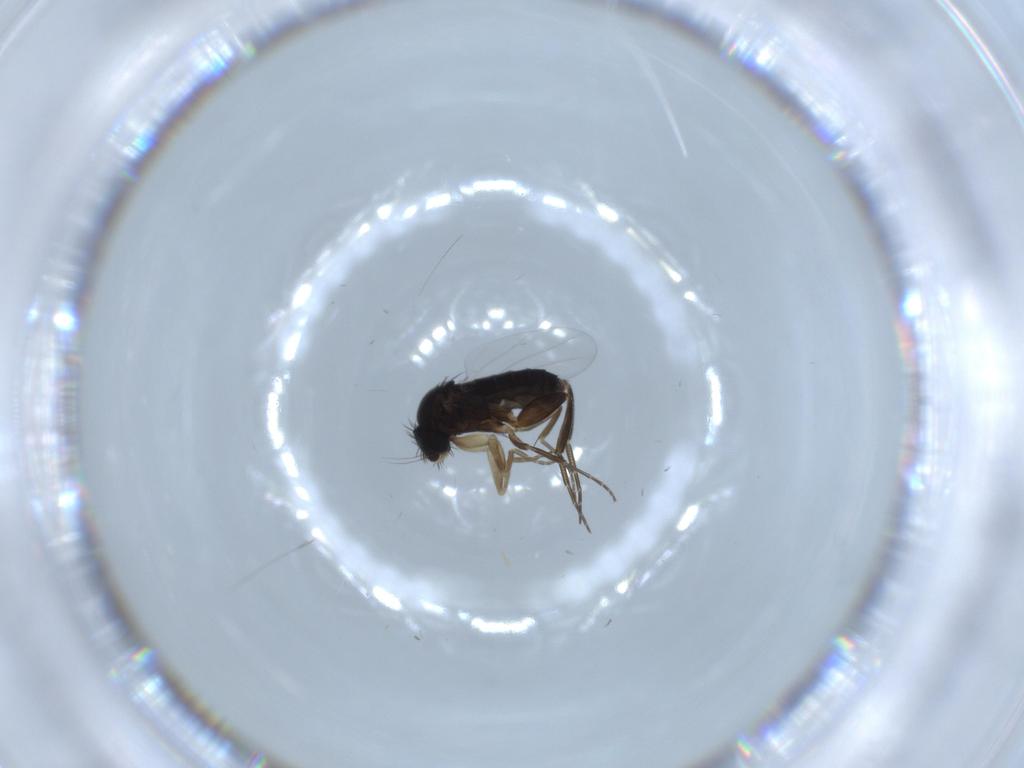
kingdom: Animalia
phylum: Arthropoda
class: Insecta
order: Diptera
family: Phoridae
